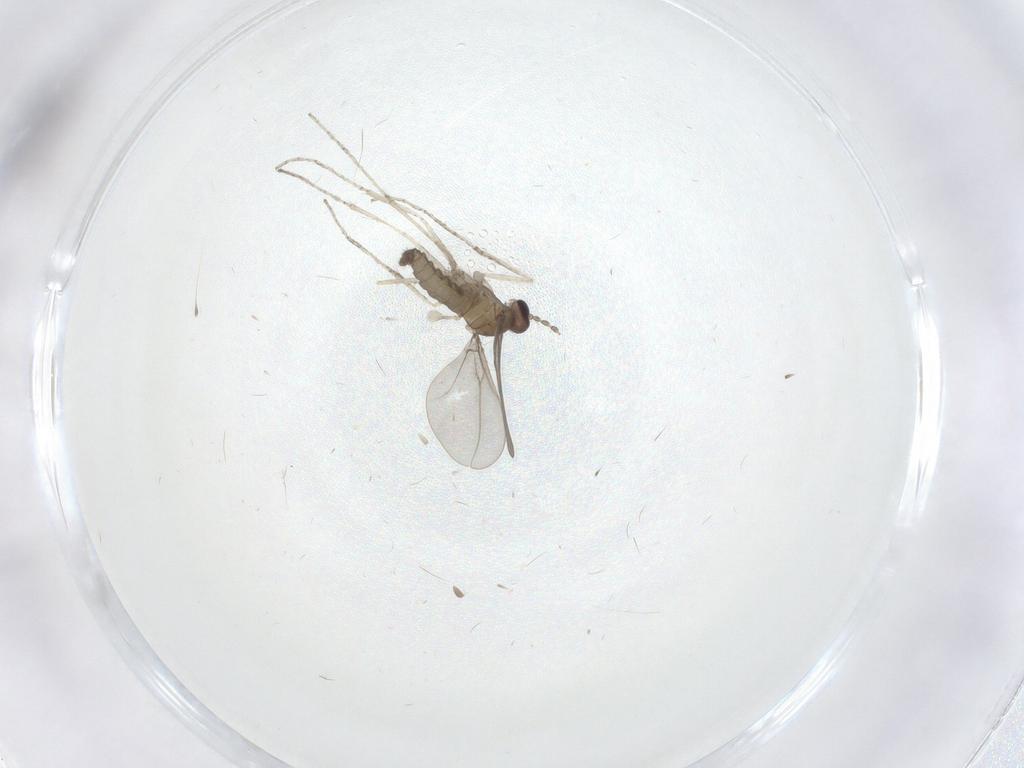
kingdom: Animalia
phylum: Arthropoda
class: Insecta
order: Diptera
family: Cecidomyiidae
